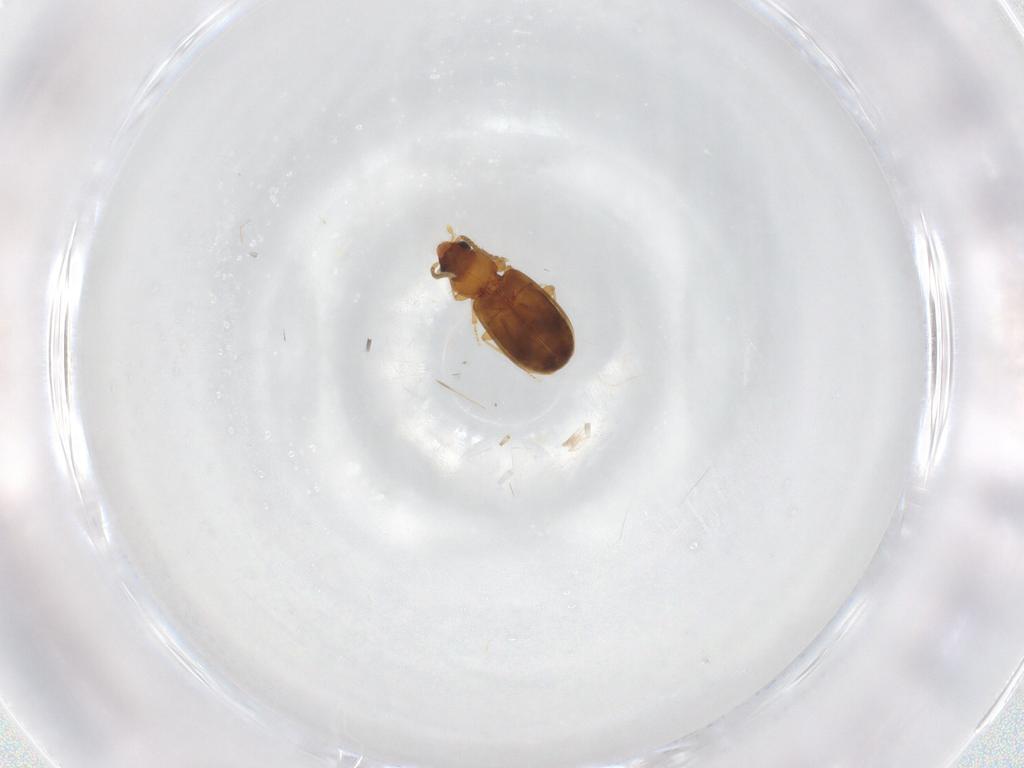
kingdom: Animalia
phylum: Arthropoda
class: Insecta
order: Coleoptera
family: Carabidae
